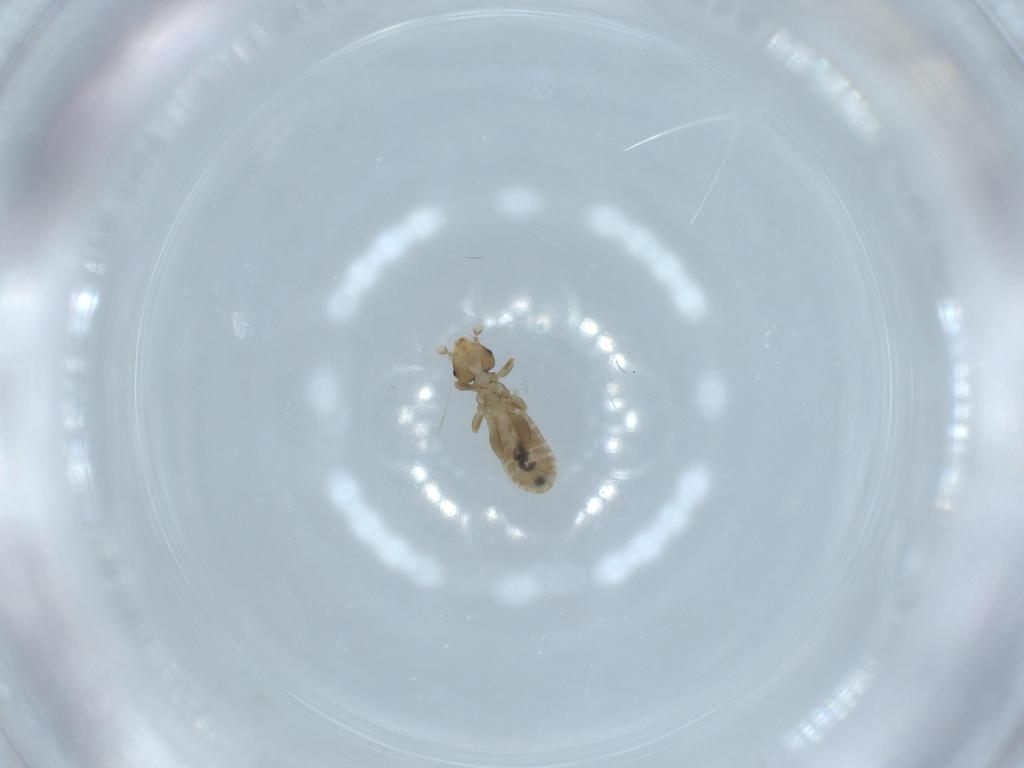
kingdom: Animalia
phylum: Arthropoda
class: Insecta
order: Psocodea
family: Liposcelididae
